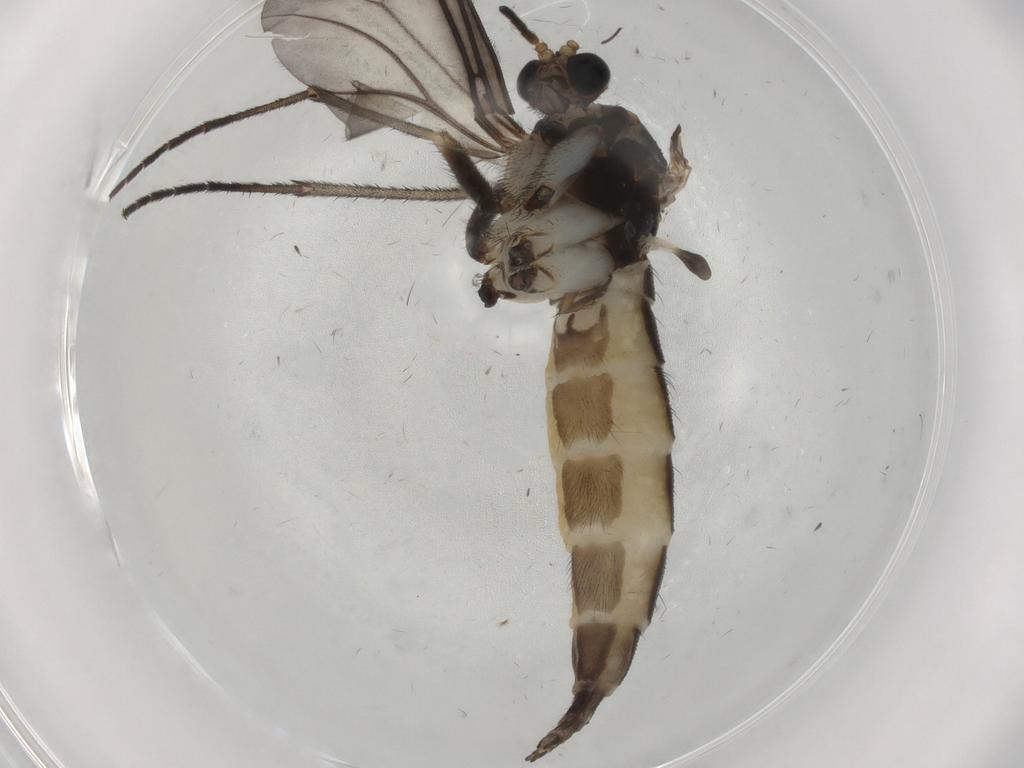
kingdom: Animalia
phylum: Arthropoda
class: Insecta
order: Diptera
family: Sciaridae
